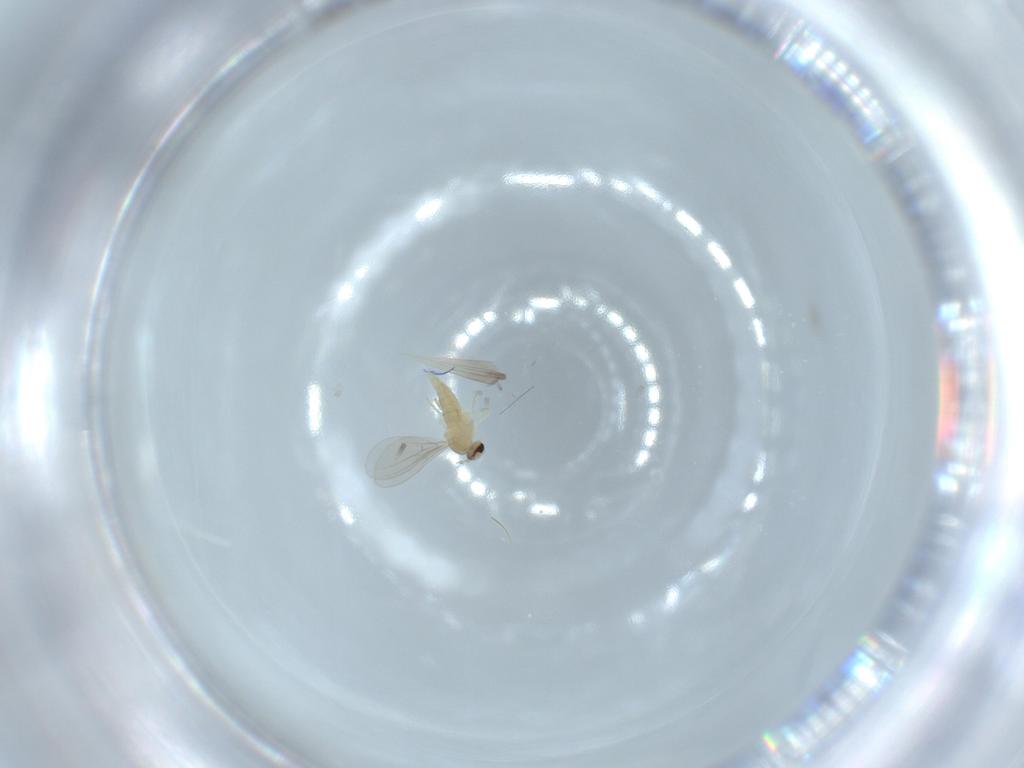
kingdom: Animalia
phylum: Arthropoda
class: Insecta
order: Diptera
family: Cecidomyiidae
